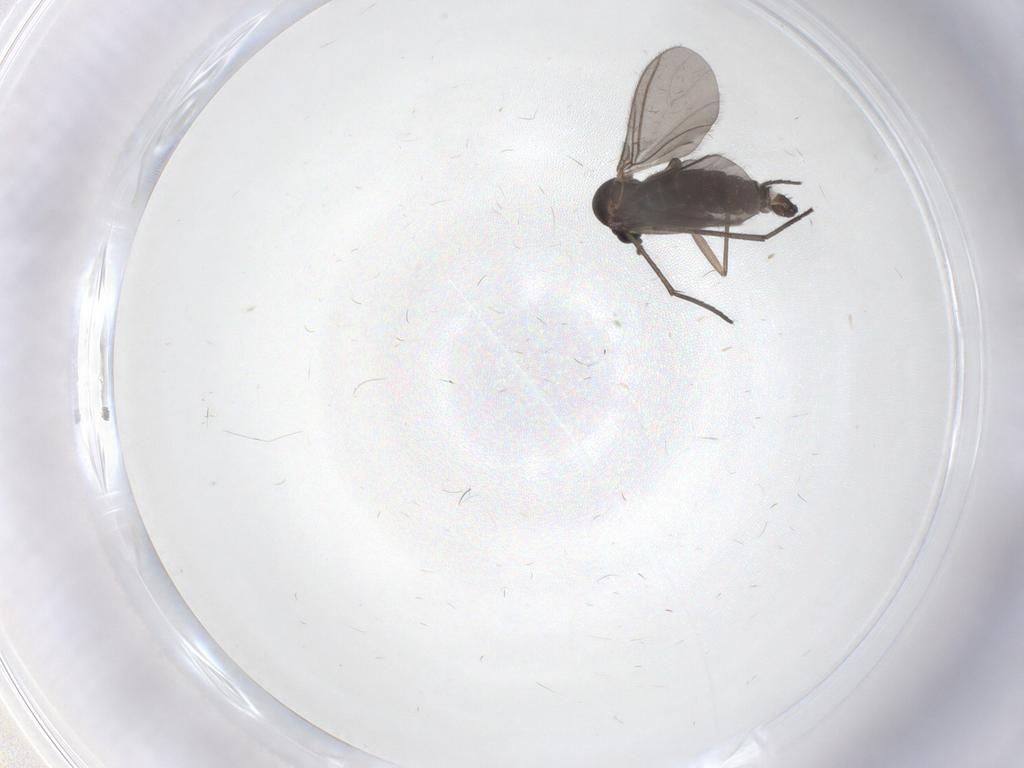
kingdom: Animalia
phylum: Arthropoda
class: Insecta
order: Diptera
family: Sciaridae
